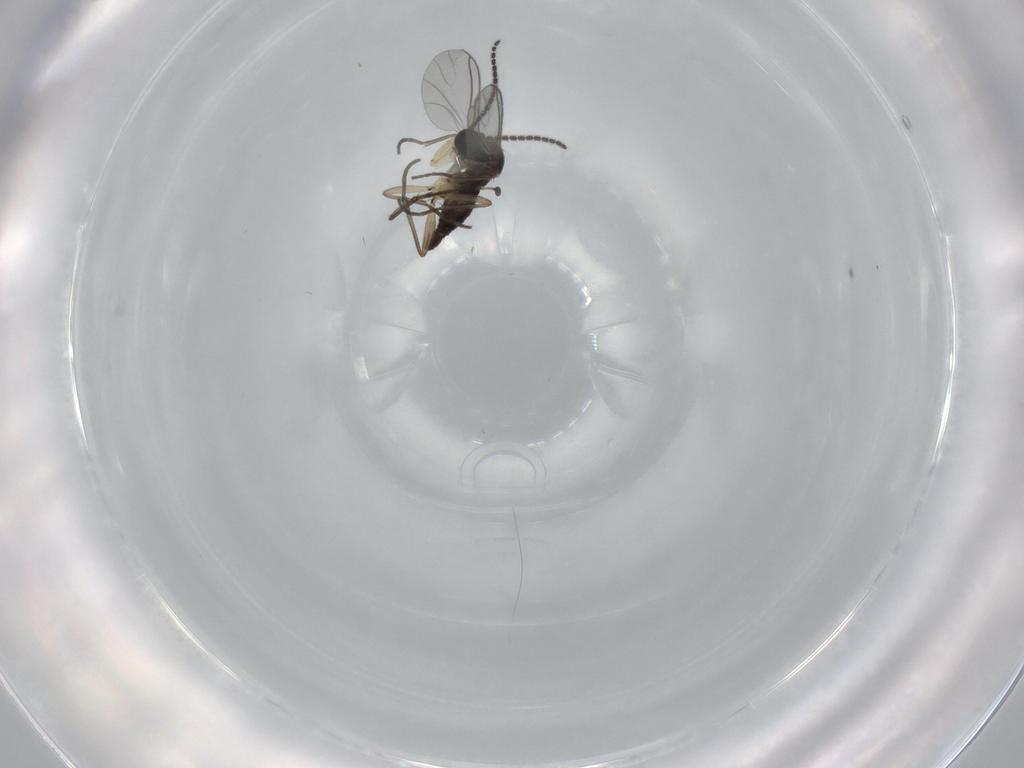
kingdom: Animalia
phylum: Arthropoda
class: Insecta
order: Diptera
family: Sciaridae
